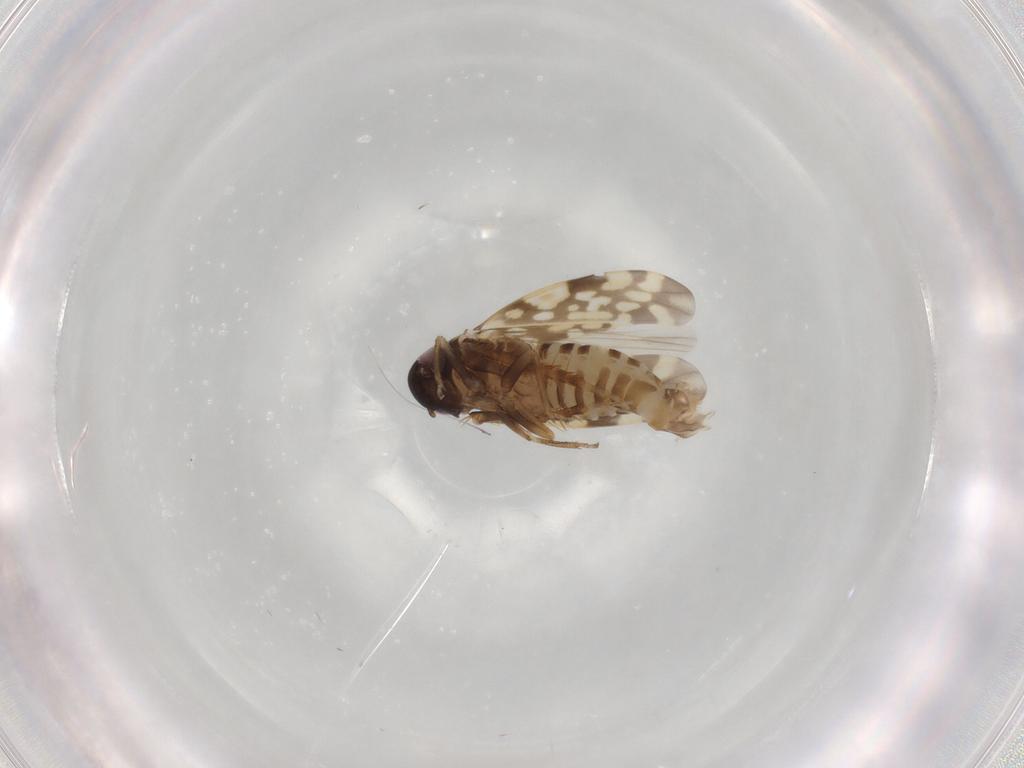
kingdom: Animalia
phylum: Arthropoda
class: Insecta
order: Hemiptera
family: Cicadellidae
